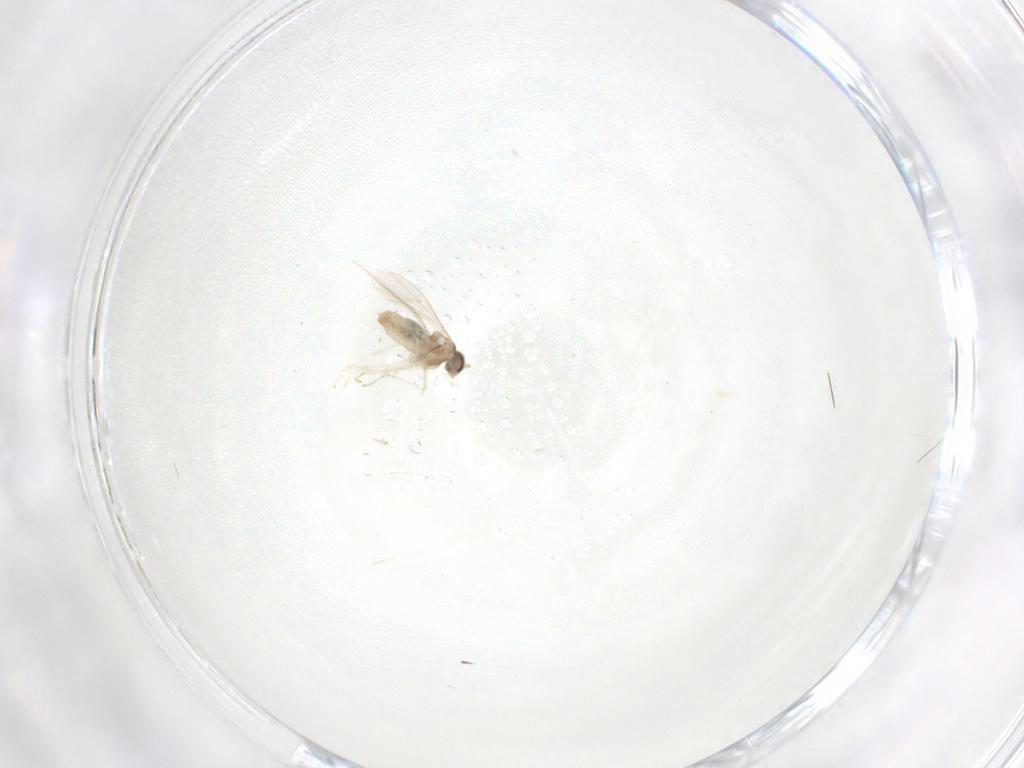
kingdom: Animalia
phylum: Arthropoda
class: Insecta
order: Diptera
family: Cecidomyiidae
